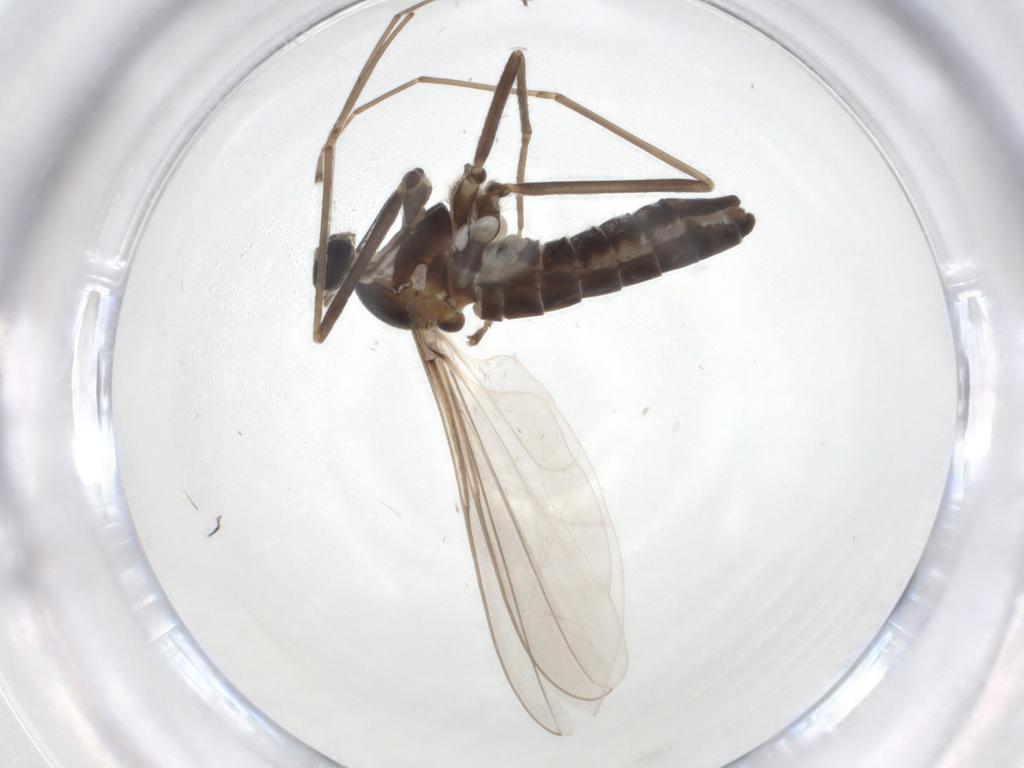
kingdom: Animalia
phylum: Arthropoda
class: Insecta
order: Diptera
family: Cecidomyiidae
